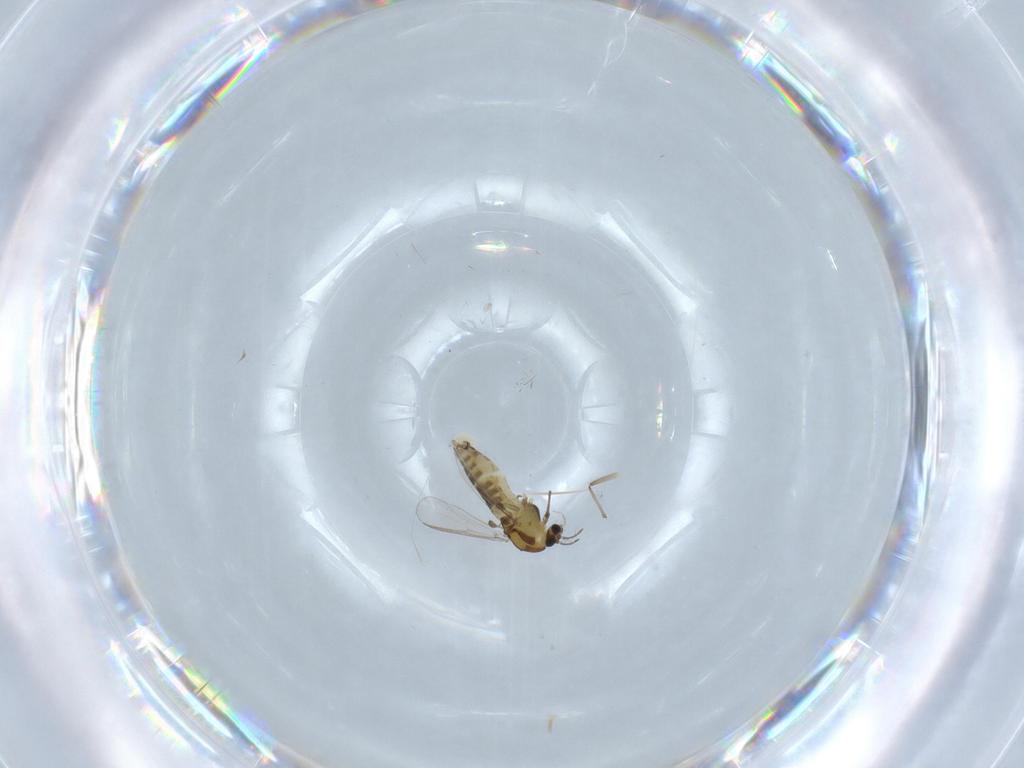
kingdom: Animalia
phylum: Arthropoda
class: Insecta
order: Diptera
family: Chironomidae
